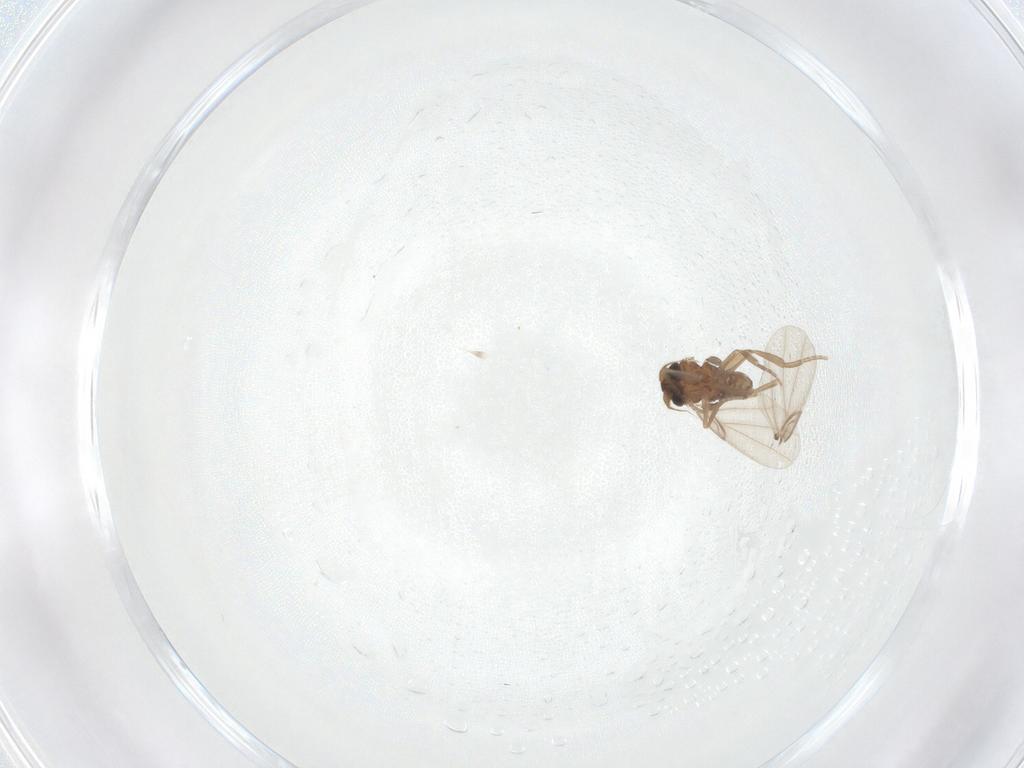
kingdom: Animalia
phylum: Arthropoda
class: Insecta
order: Diptera
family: Phoridae
